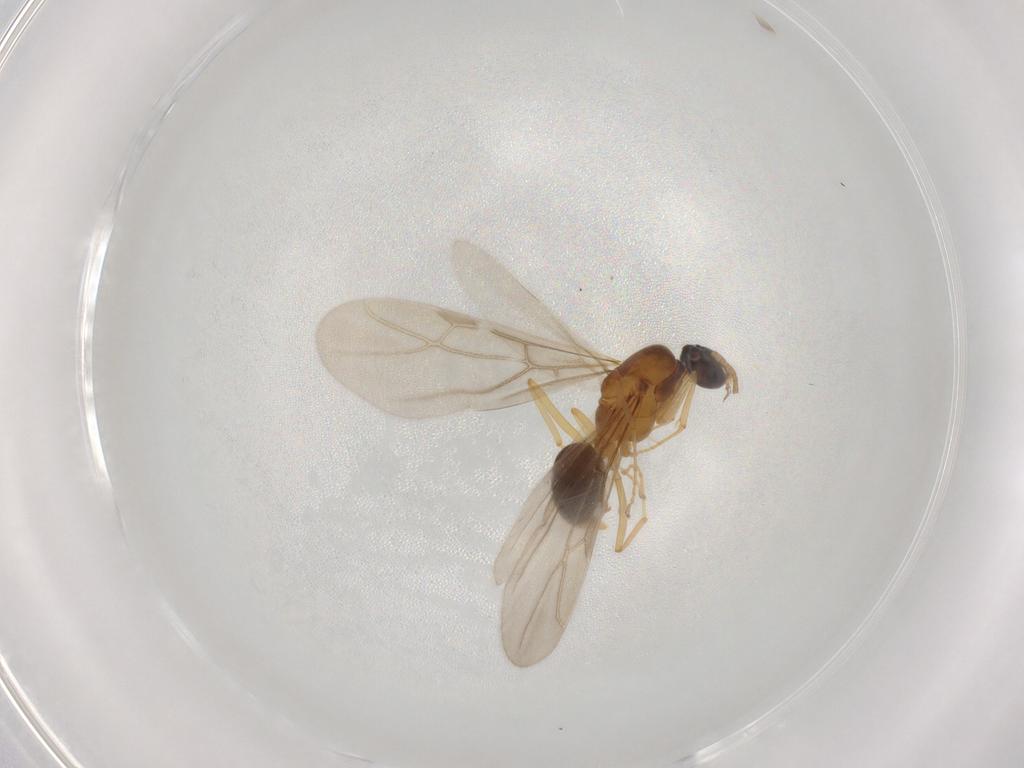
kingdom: Animalia
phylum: Arthropoda
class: Insecta
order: Hymenoptera
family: Formicidae
